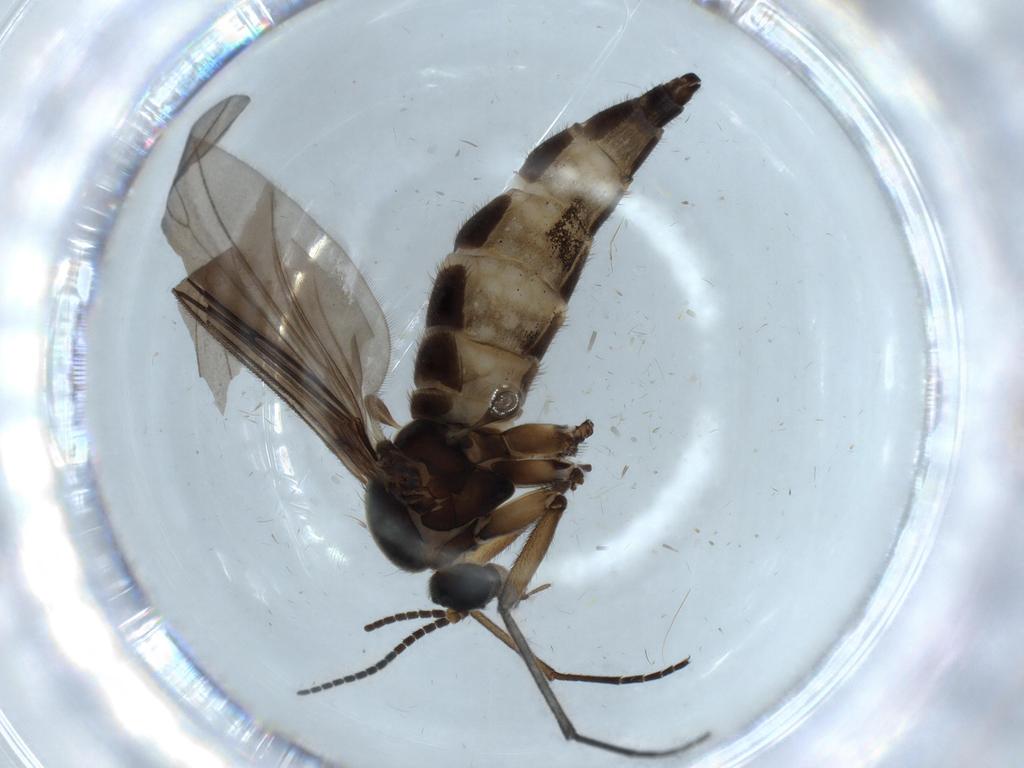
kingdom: Animalia
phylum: Arthropoda
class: Insecta
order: Diptera
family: Sciaridae
